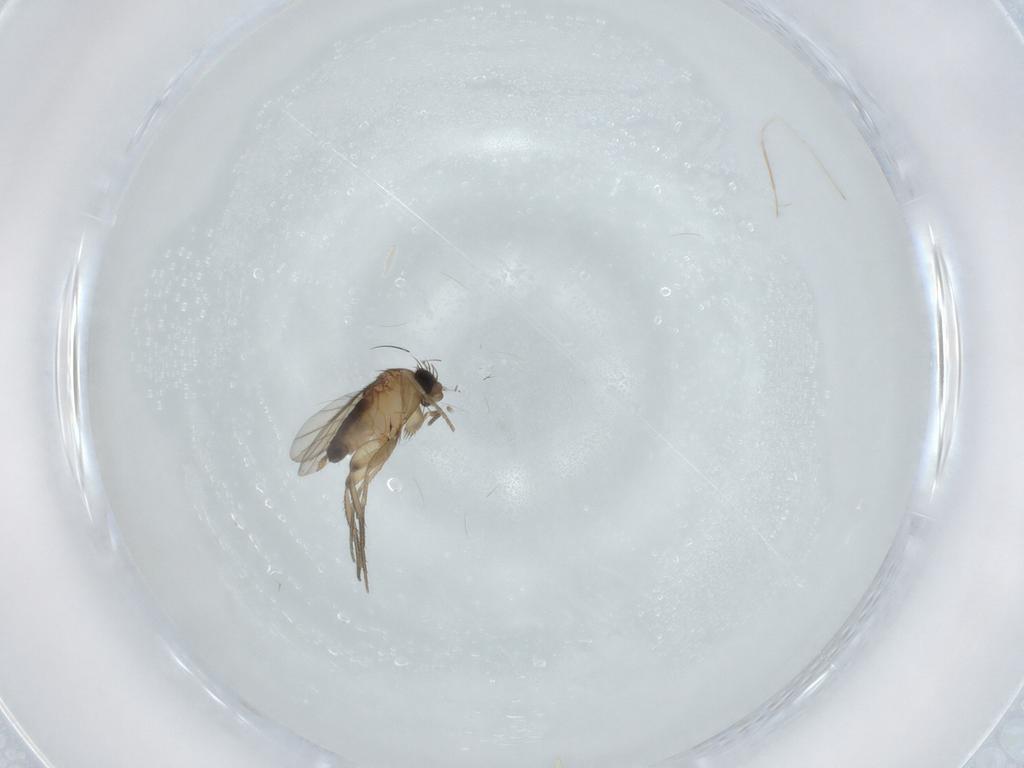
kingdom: Animalia
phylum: Arthropoda
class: Insecta
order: Diptera
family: Phoridae
